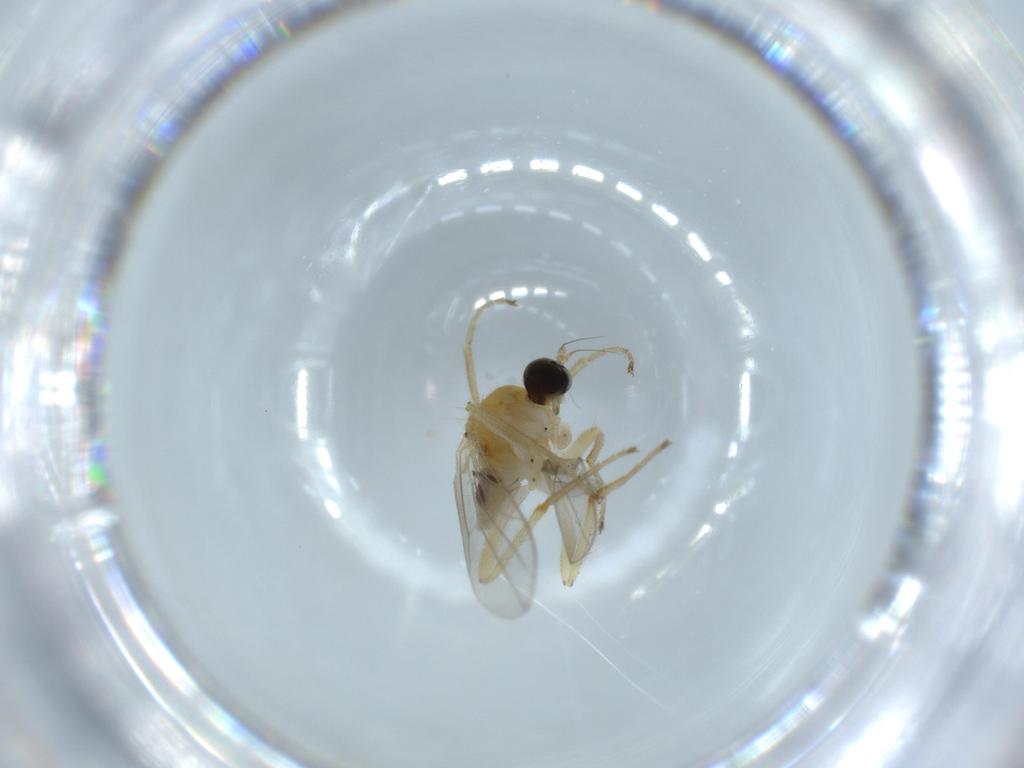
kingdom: Animalia
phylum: Arthropoda
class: Insecta
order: Diptera
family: Hybotidae
